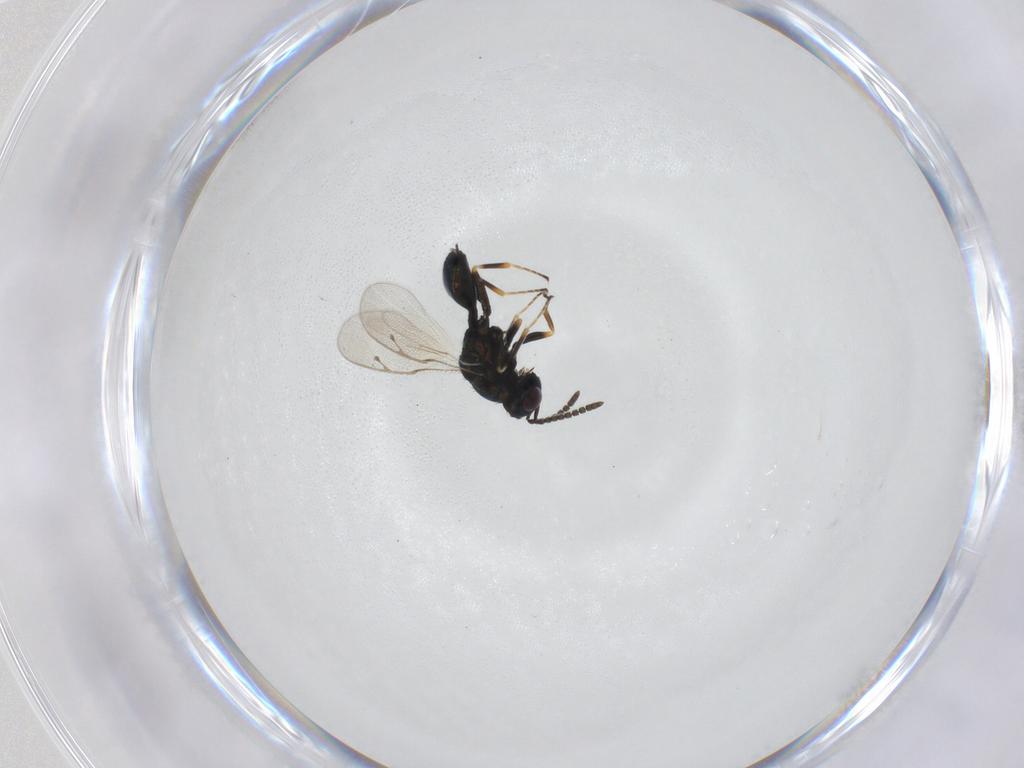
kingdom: Animalia
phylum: Arthropoda
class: Insecta
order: Hymenoptera
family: Pteromalidae
